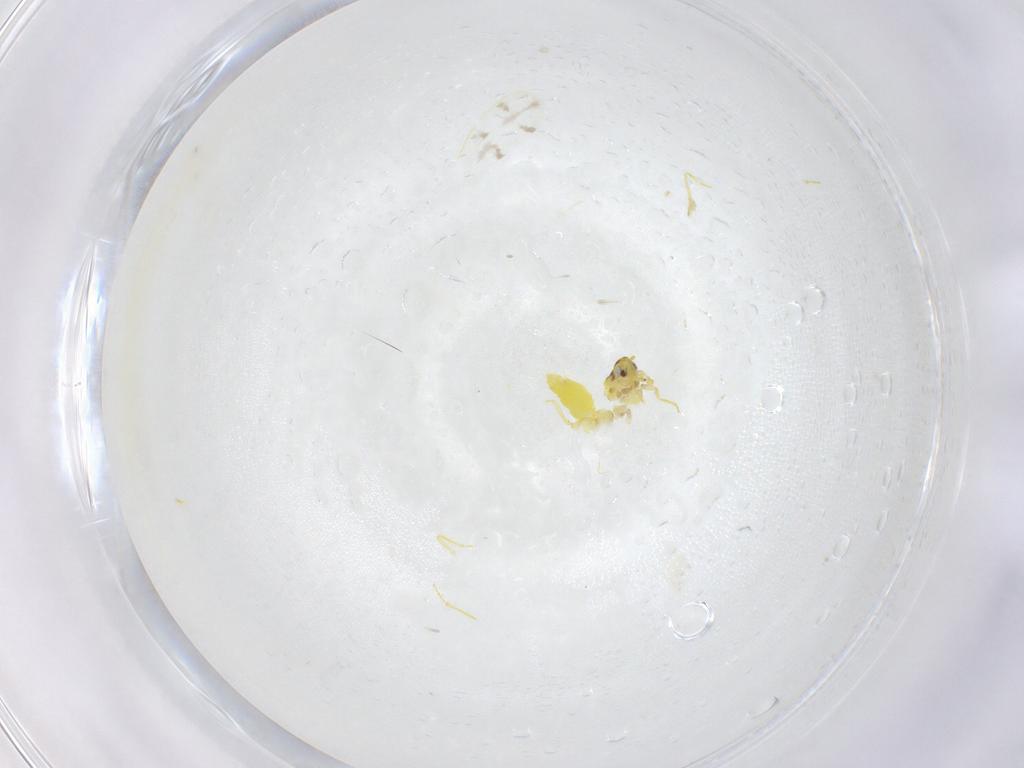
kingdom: Animalia
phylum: Arthropoda
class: Insecta
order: Hemiptera
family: Aleyrodidae
